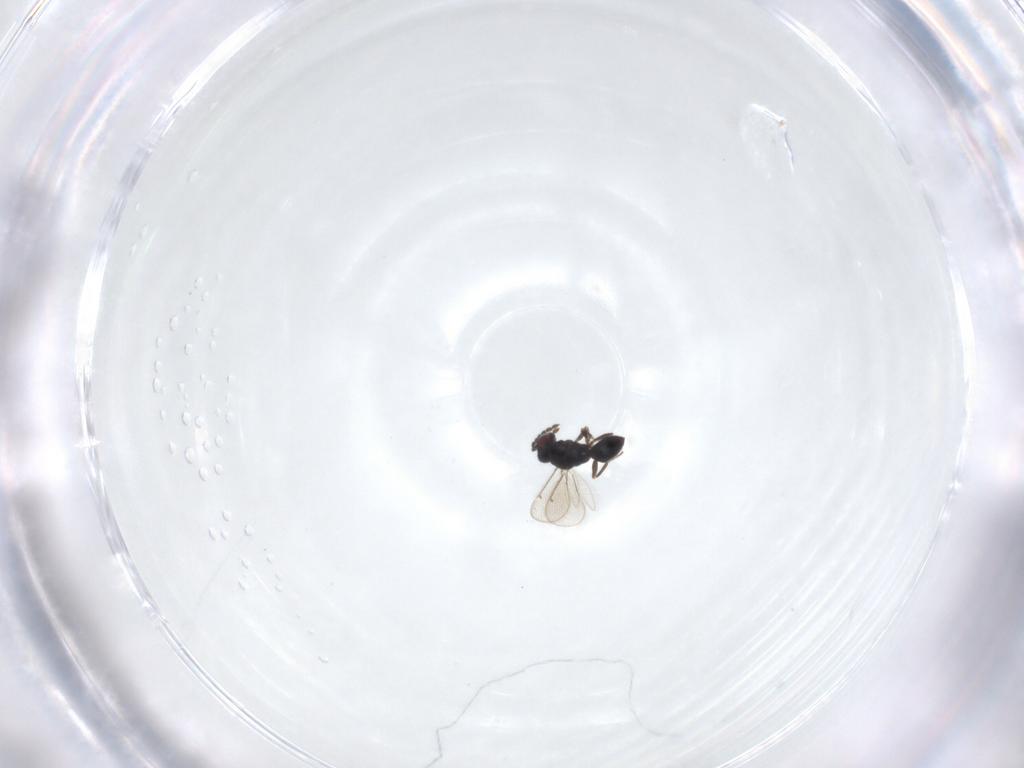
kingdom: Animalia
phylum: Arthropoda
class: Insecta
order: Hymenoptera
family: Eulophidae
